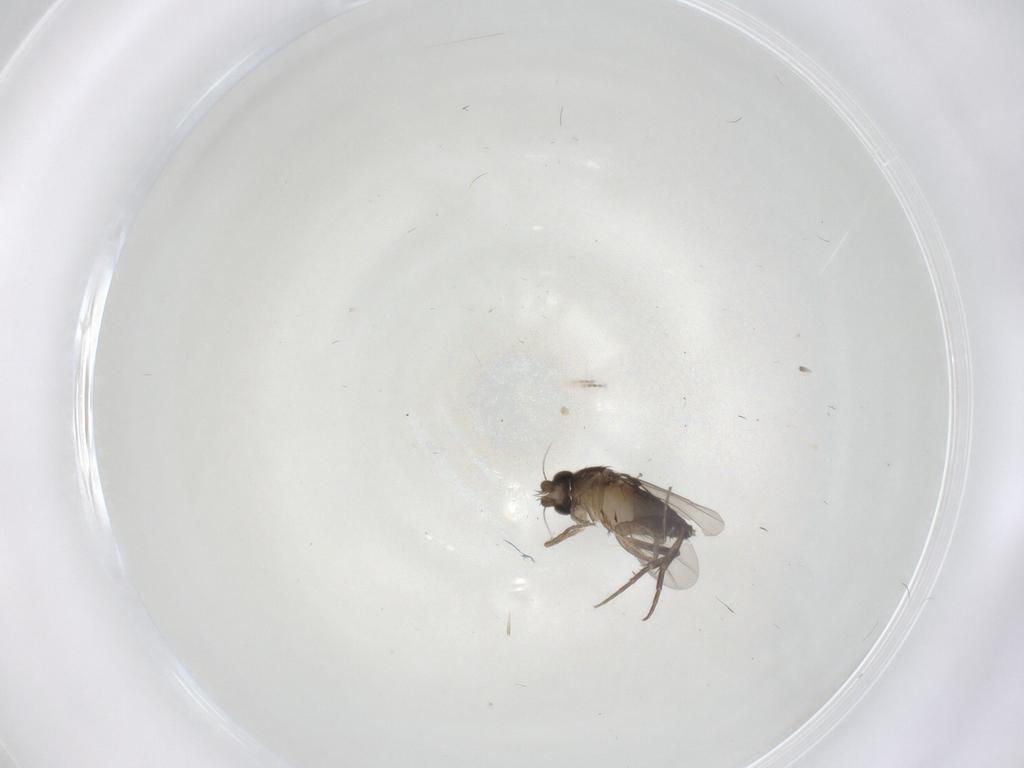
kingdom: Animalia
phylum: Arthropoda
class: Insecta
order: Diptera
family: Phoridae
